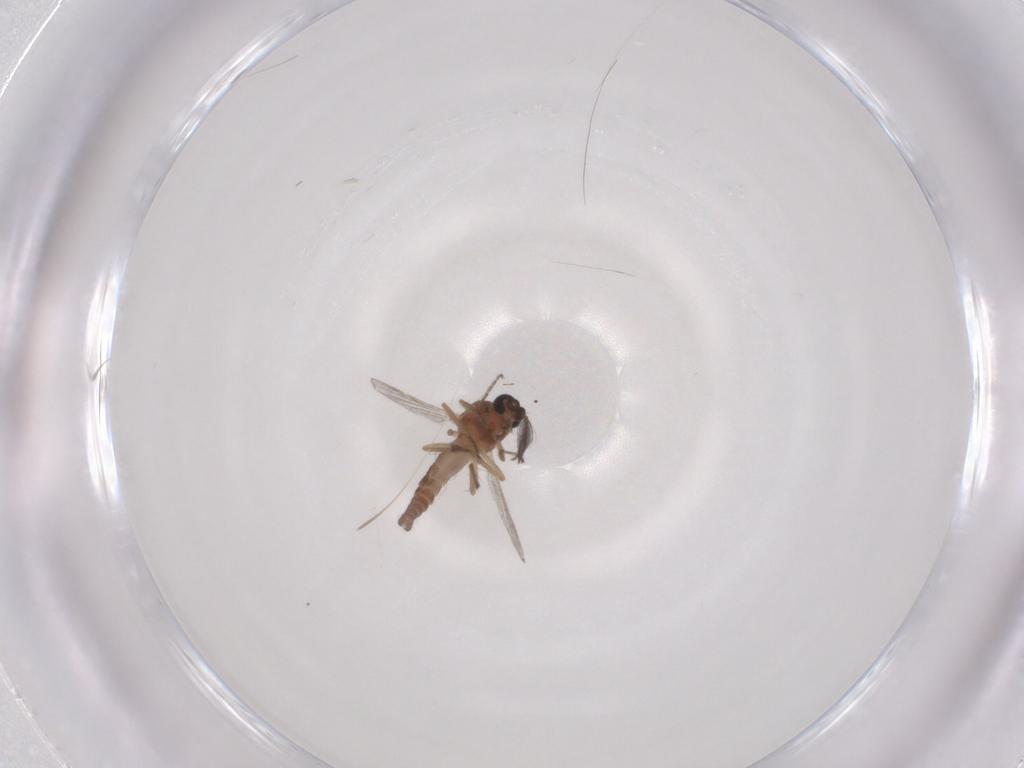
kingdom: Animalia
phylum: Arthropoda
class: Insecta
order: Diptera
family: Ceratopogonidae
